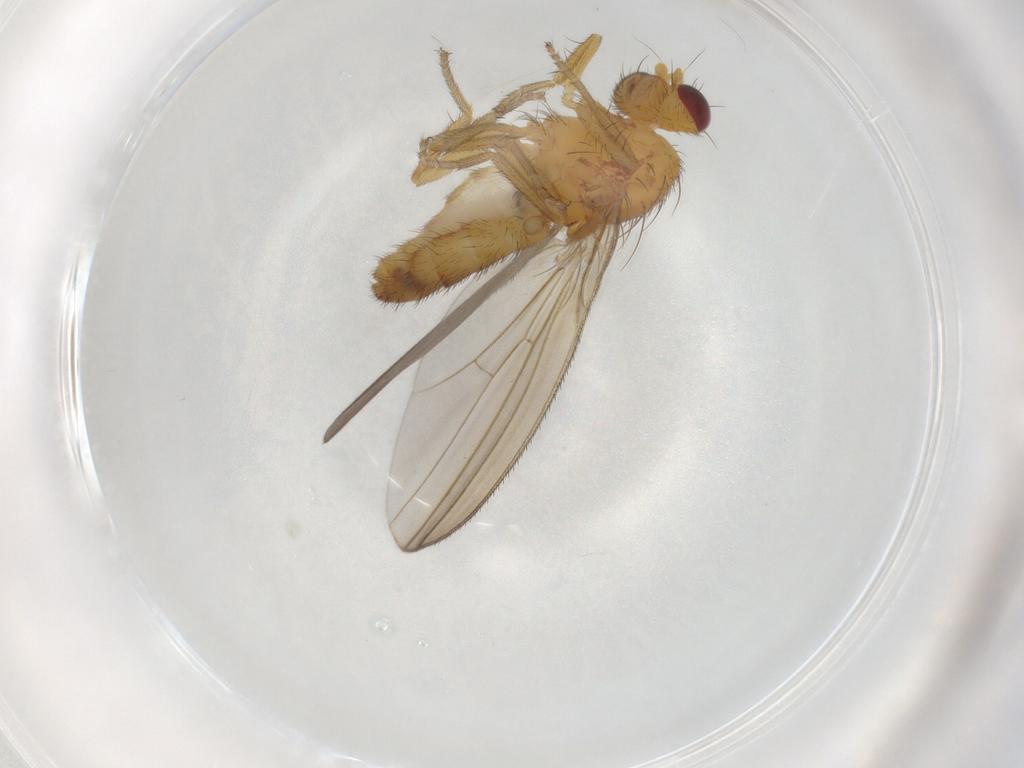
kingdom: Animalia
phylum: Arthropoda
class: Insecta
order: Diptera
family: Natalimyzidae
